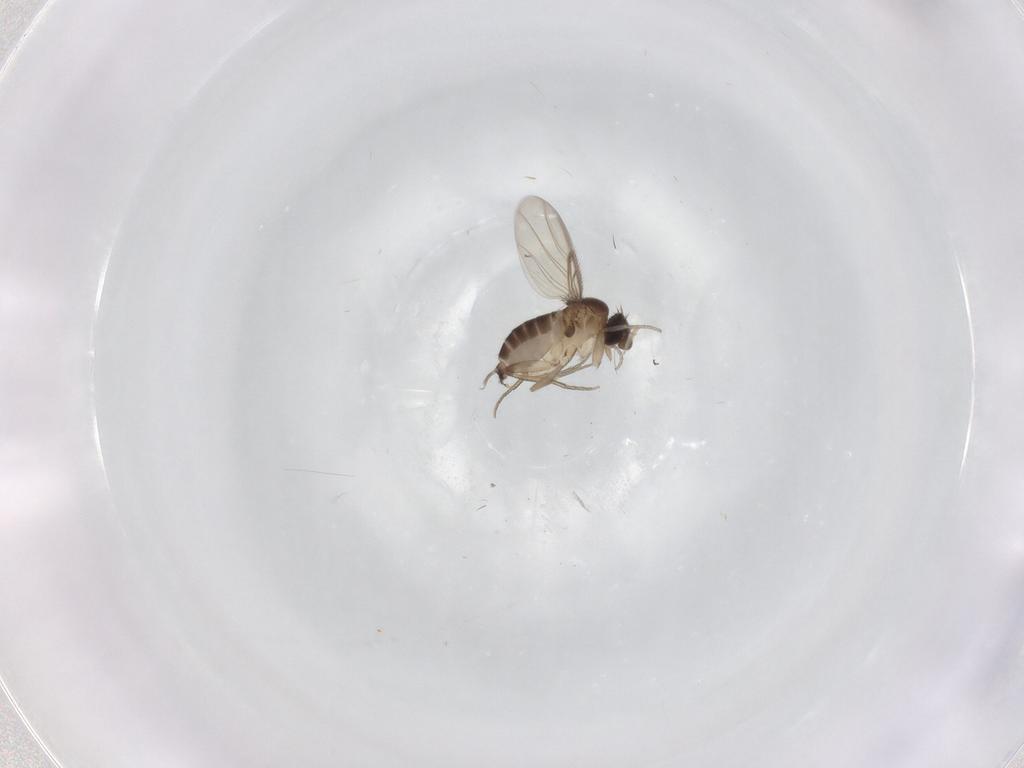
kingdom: Animalia
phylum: Arthropoda
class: Insecta
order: Diptera
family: Phoridae
